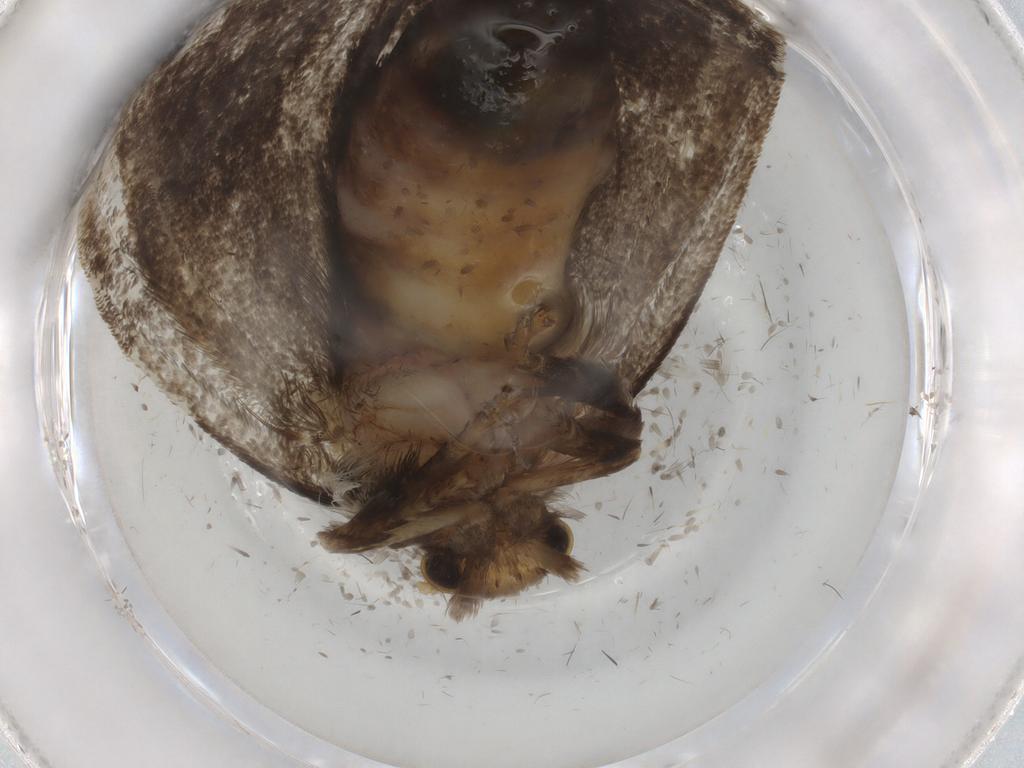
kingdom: Animalia
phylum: Arthropoda
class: Insecta
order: Lepidoptera
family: Tineidae
